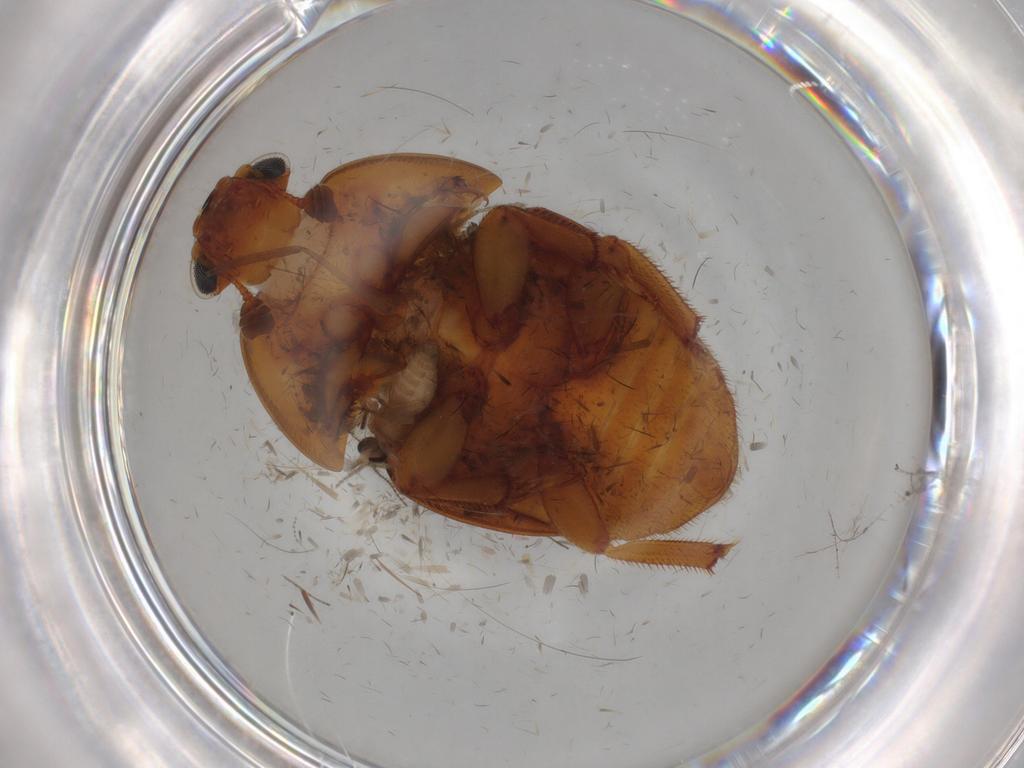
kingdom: Animalia
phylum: Arthropoda
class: Insecta
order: Coleoptera
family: Nitidulidae
